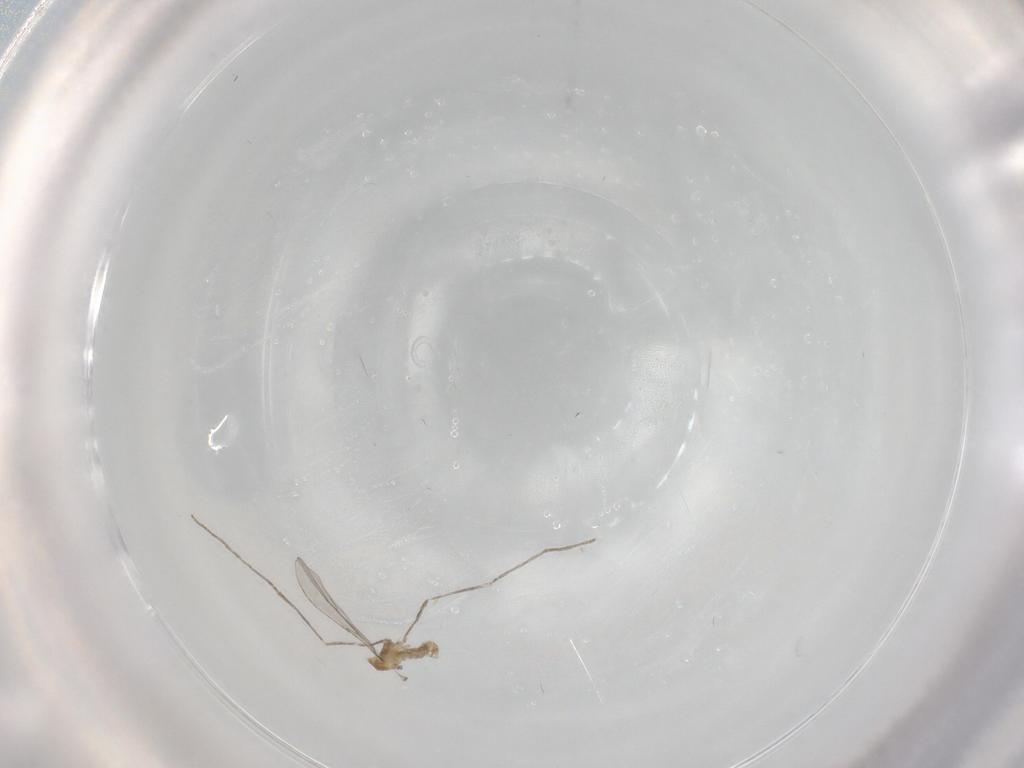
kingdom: Animalia
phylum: Arthropoda
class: Insecta
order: Diptera
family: Cecidomyiidae
